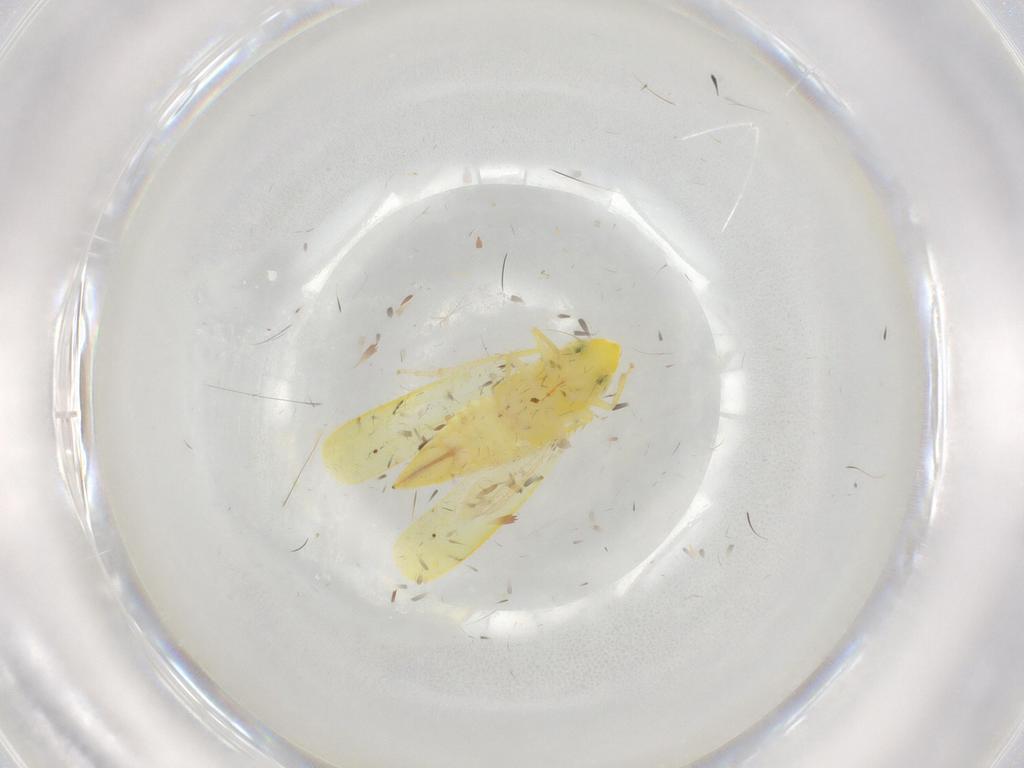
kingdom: Animalia
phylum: Arthropoda
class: Insecta
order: Hemiptera
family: Cicadellidae
